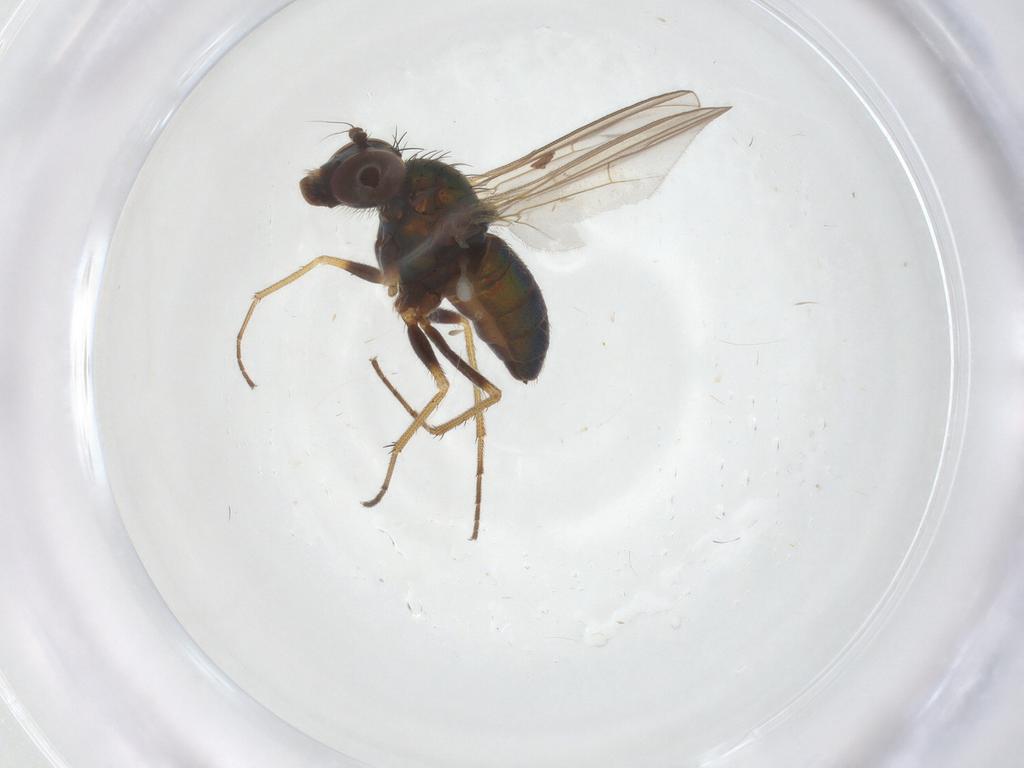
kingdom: Animalia
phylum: Arthropoda
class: Insecta
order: Diptera
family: Dolichopodidae
